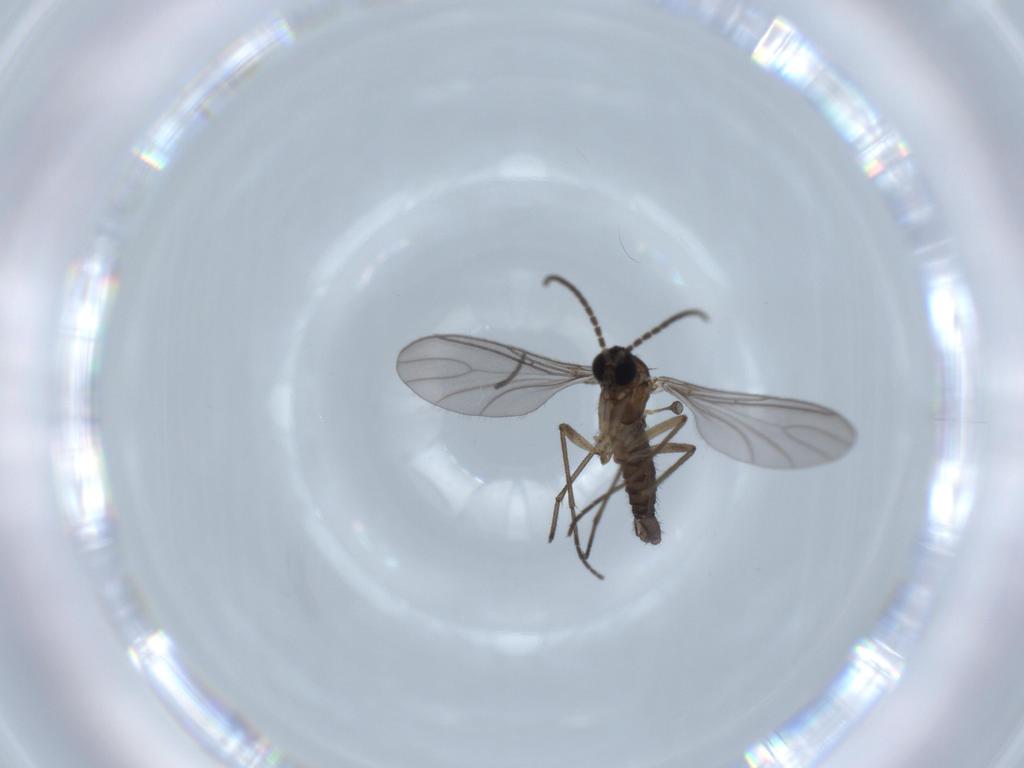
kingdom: Animalia
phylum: Arthropoda
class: Insecta
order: Diptera
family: Sciaridae
